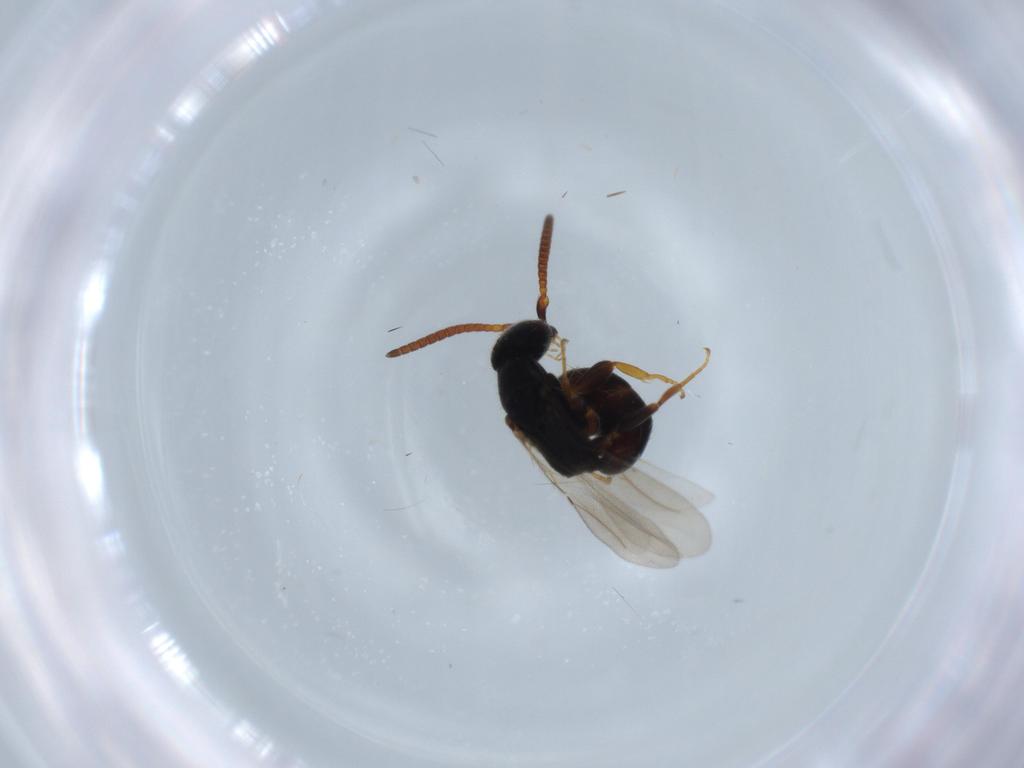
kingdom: Animalia
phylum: Arthropoda
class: Insecta
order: Hymenoptera
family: Bethylidae
